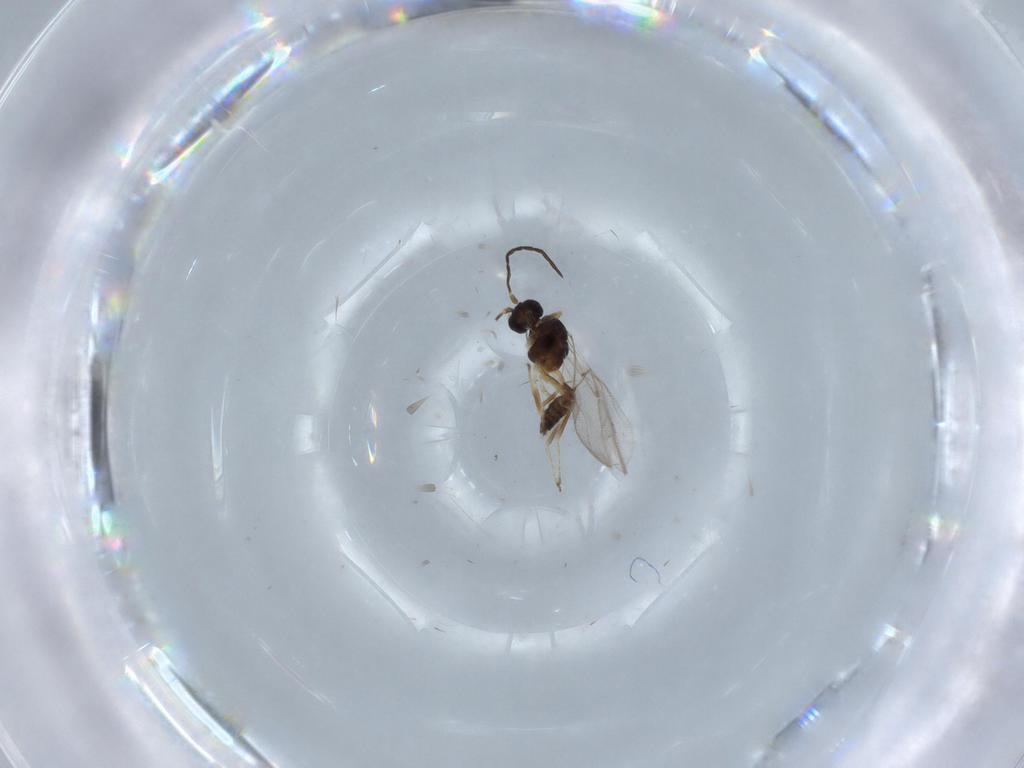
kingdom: Animalia
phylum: Arthropoda
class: Insecta
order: Hymenoptera
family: Braconidae
